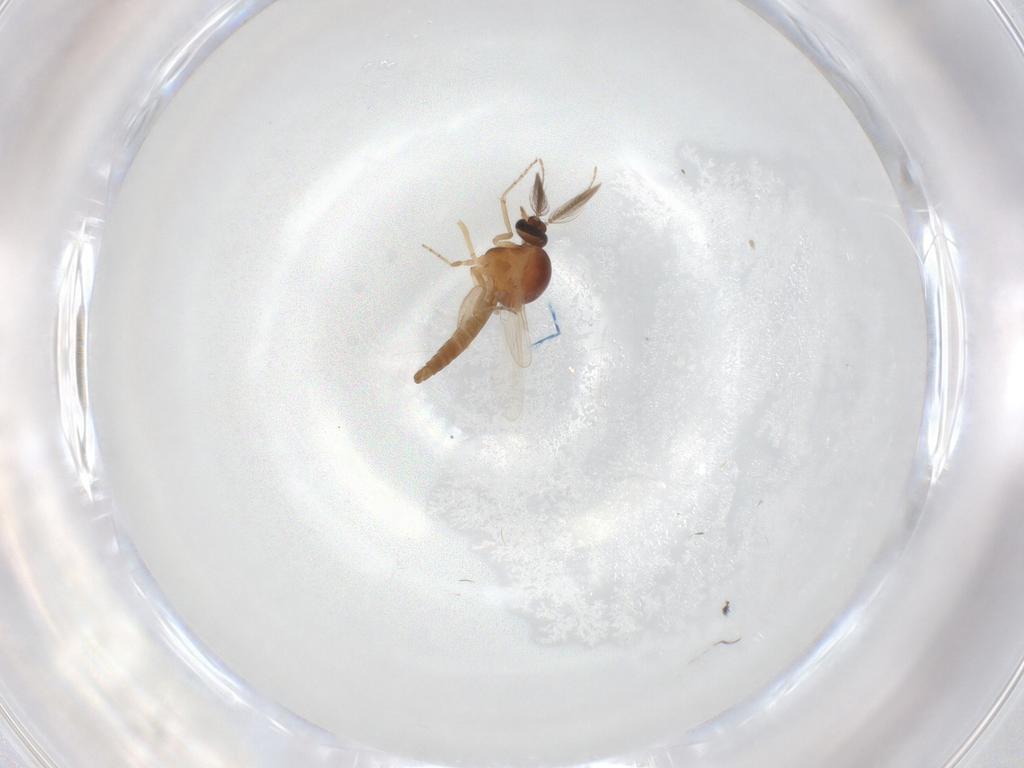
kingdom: Animalia
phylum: Arthropoda
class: Insecta
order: Diptera
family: Ceratopogonidae
